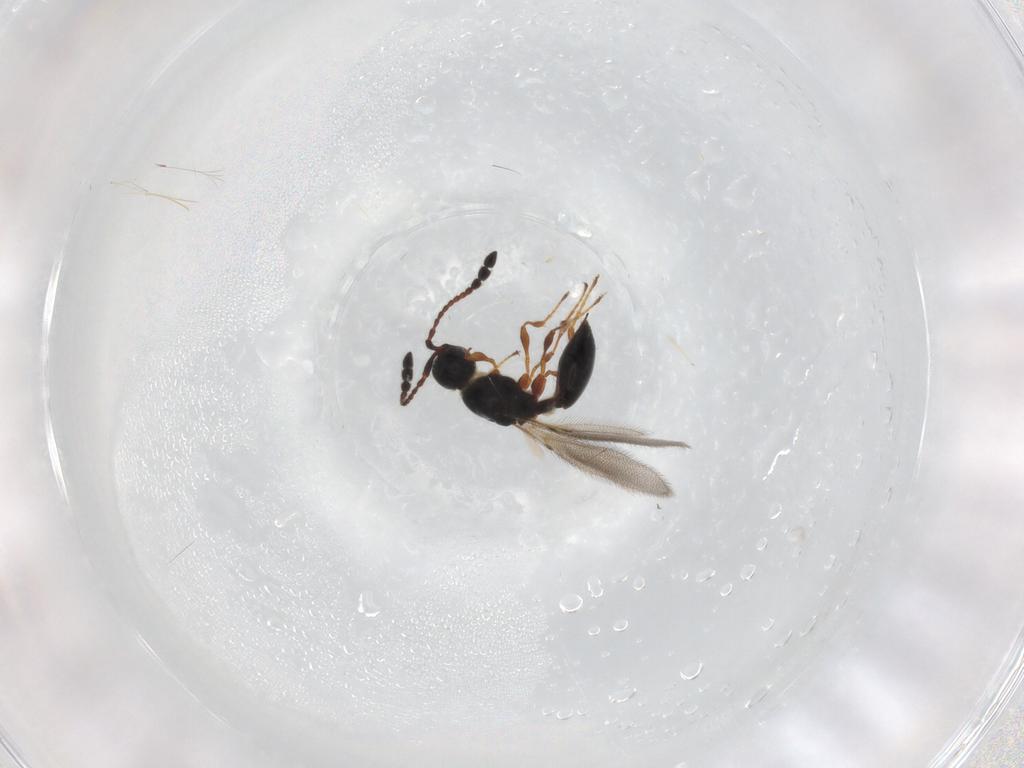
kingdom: Animalia
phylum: Arthropoda
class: Insecta
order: Hymenoptera
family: Diapriidae
